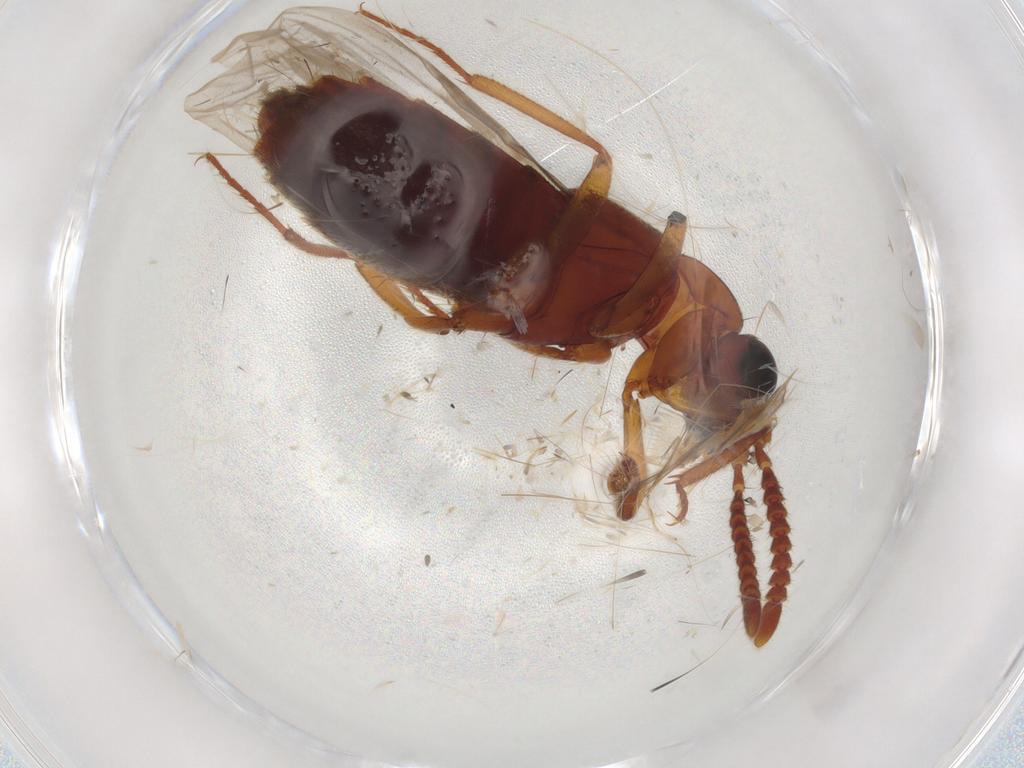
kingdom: Animalia
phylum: Arthropoda
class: Insecta
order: Coleoptera
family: Staphylinidae
